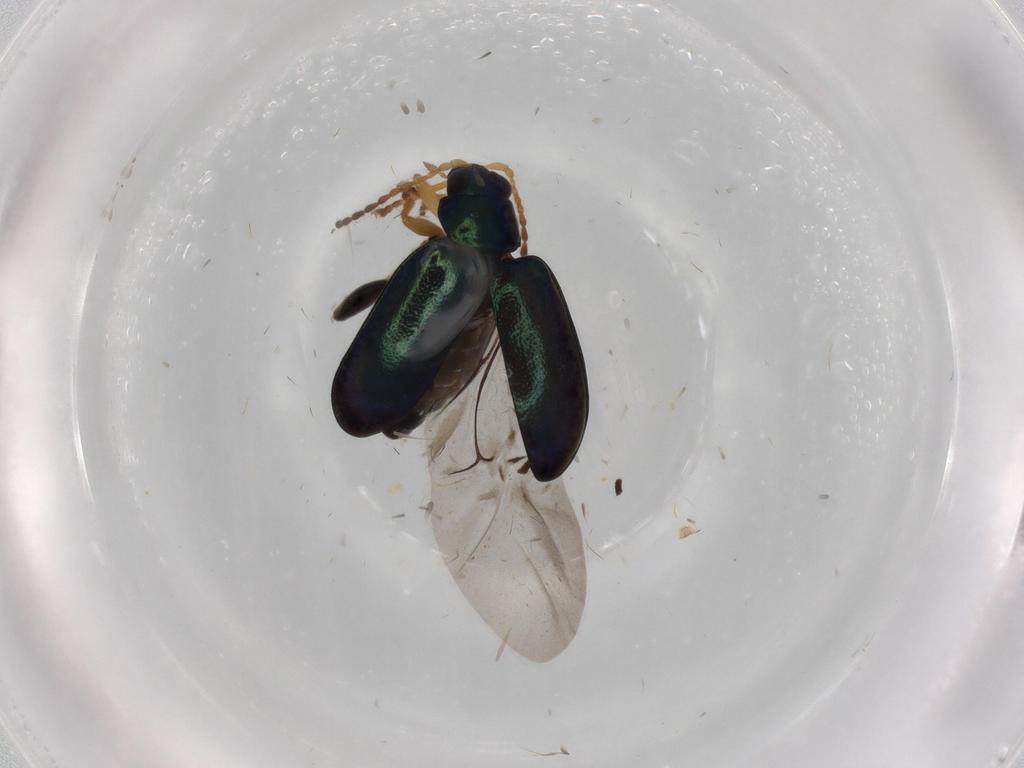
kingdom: Animalia
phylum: Arthropoda
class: Insecta
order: Coleoptera
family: Chrysomelidae
